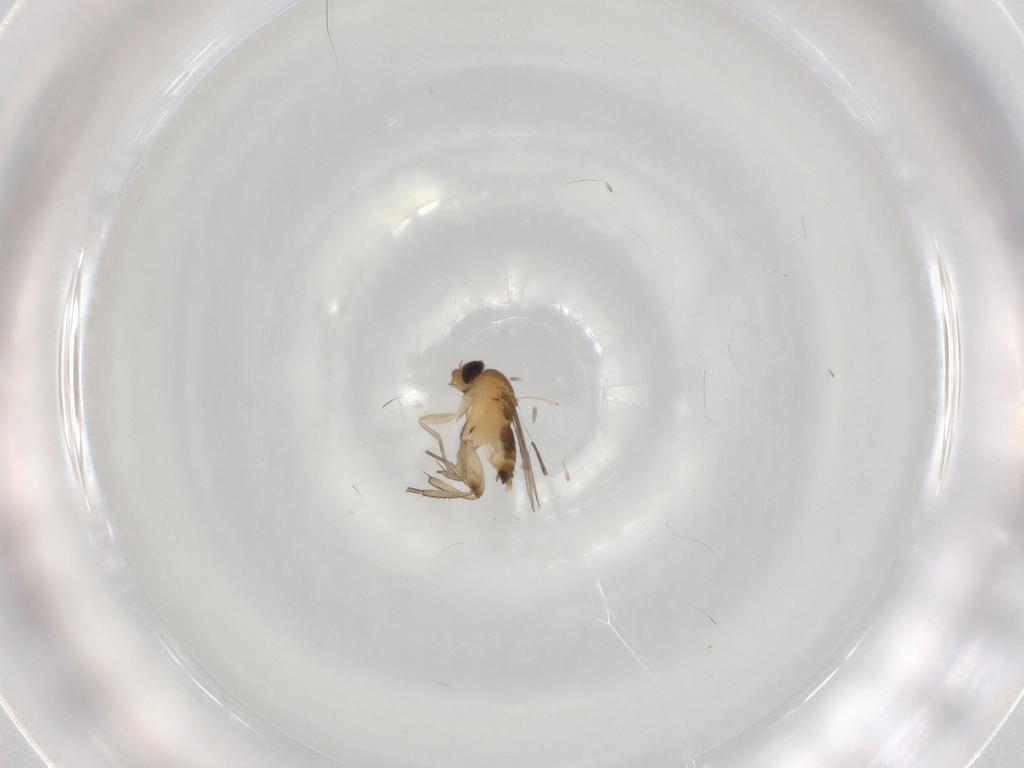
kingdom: Animalia
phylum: Arthropoda
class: Insecta
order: Diptera
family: Phoridae
